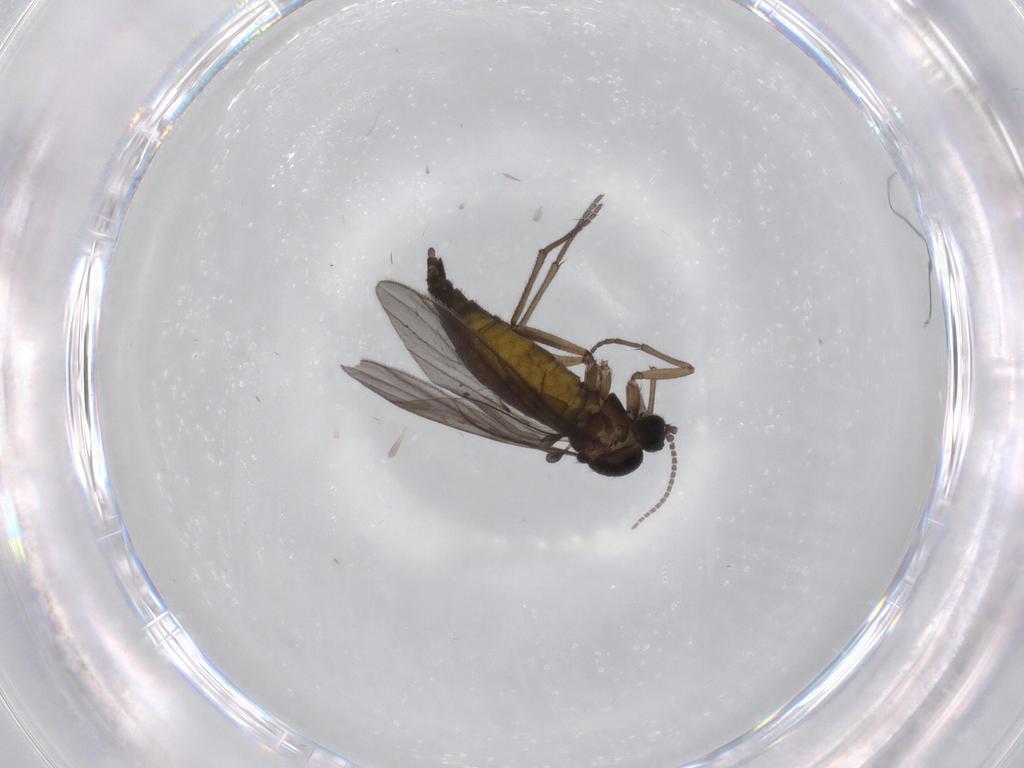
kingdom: Animalia
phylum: Arthropoda
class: Insecta
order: Diptera
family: Sciaridae
